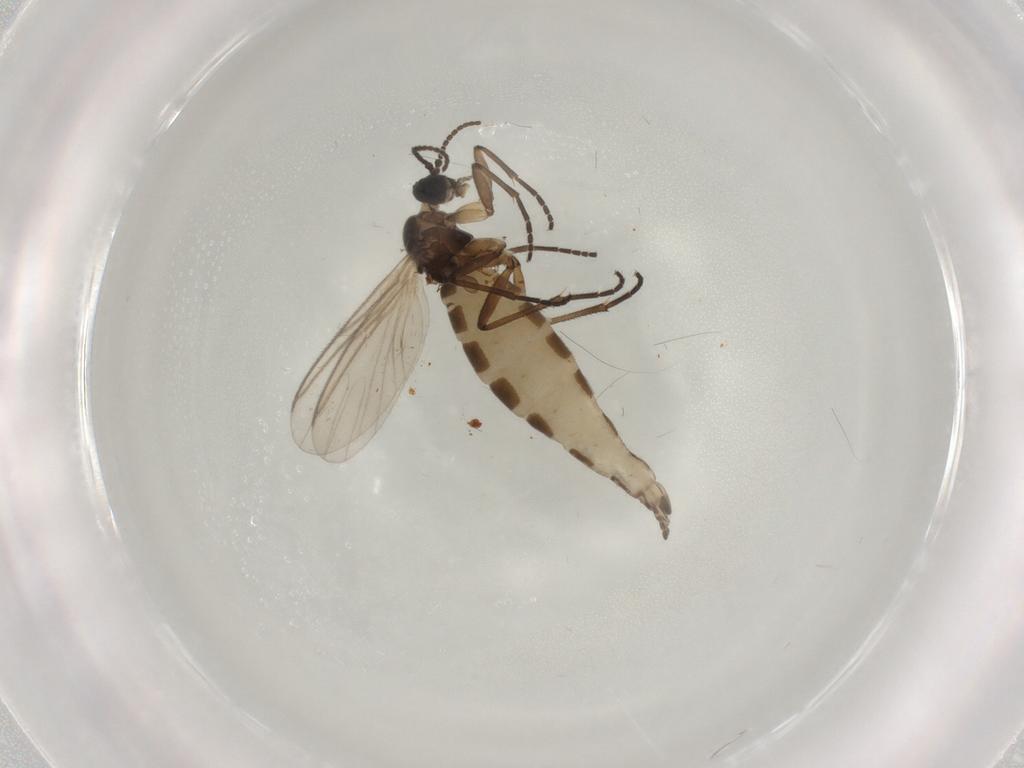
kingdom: Animalia
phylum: Arthropoda
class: Insecta
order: Diptera
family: Sciaridae
